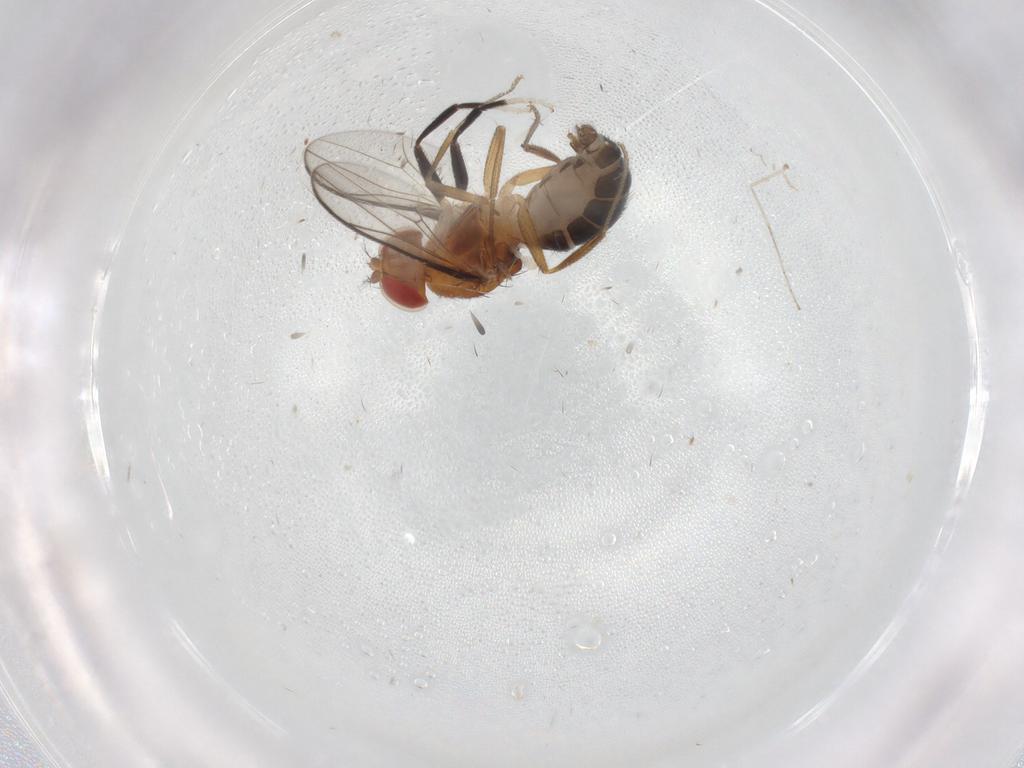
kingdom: Animalia
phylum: Arthropoda
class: Insecta
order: Diptera
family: Drosophilidae
